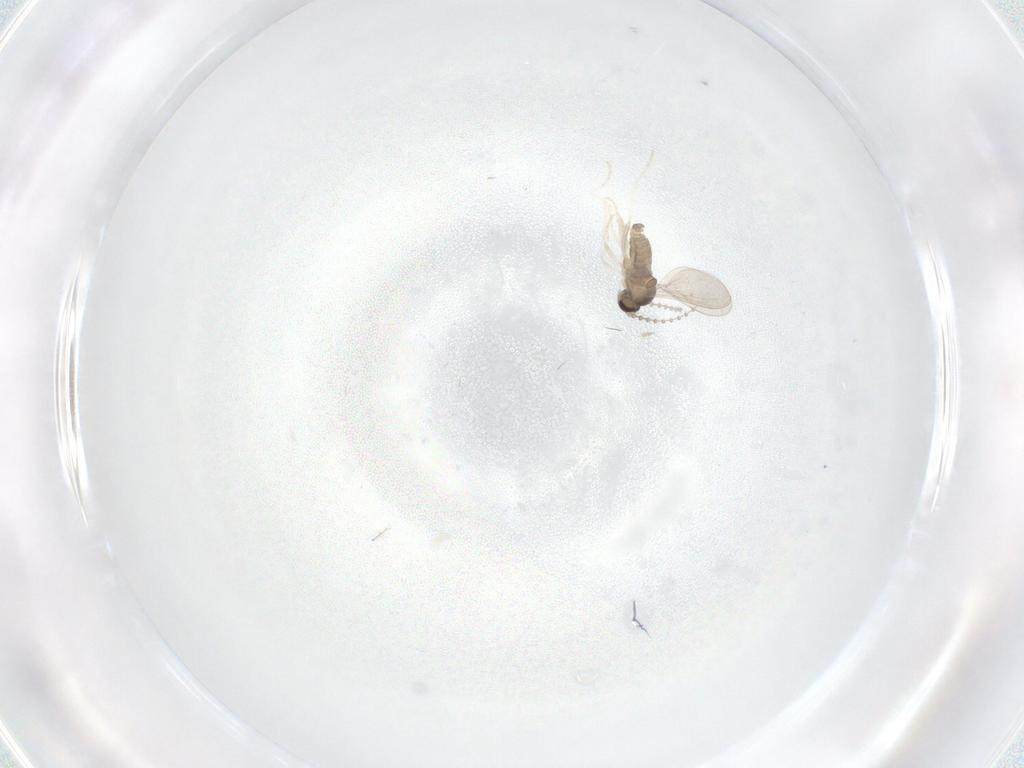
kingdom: Animalia
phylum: Arthropoda
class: Insecta
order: Diptera
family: Cecidomyiidae
